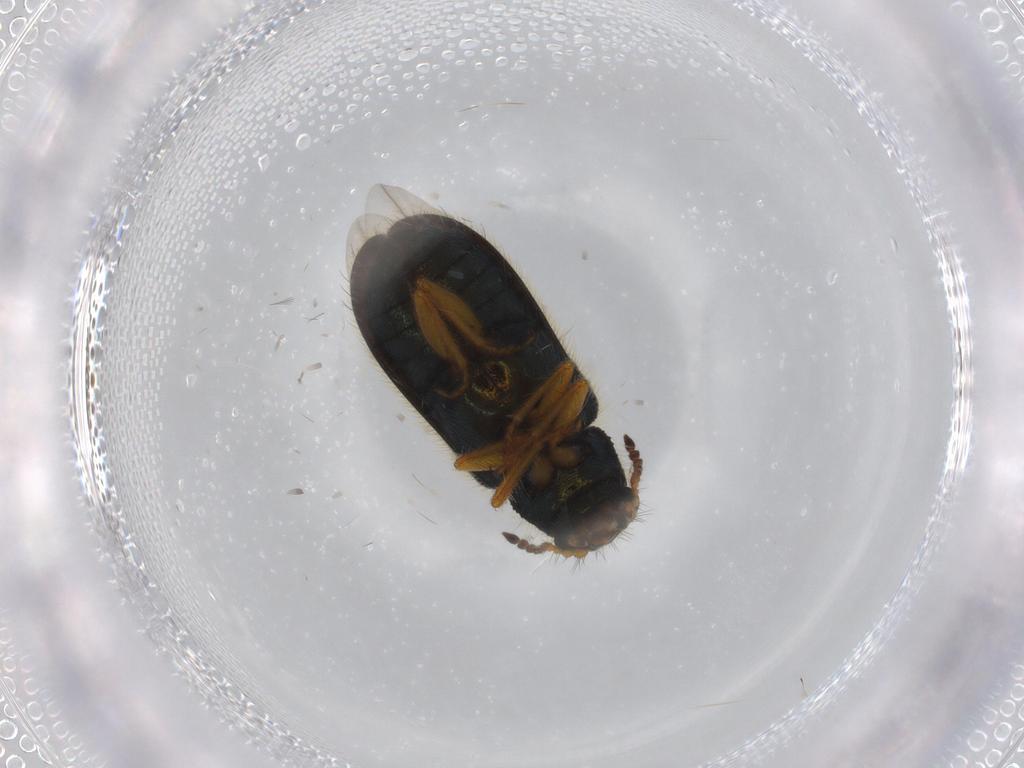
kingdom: Animalia
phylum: Arthropoda
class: Insecta
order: Coleoptera
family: Melyridae
